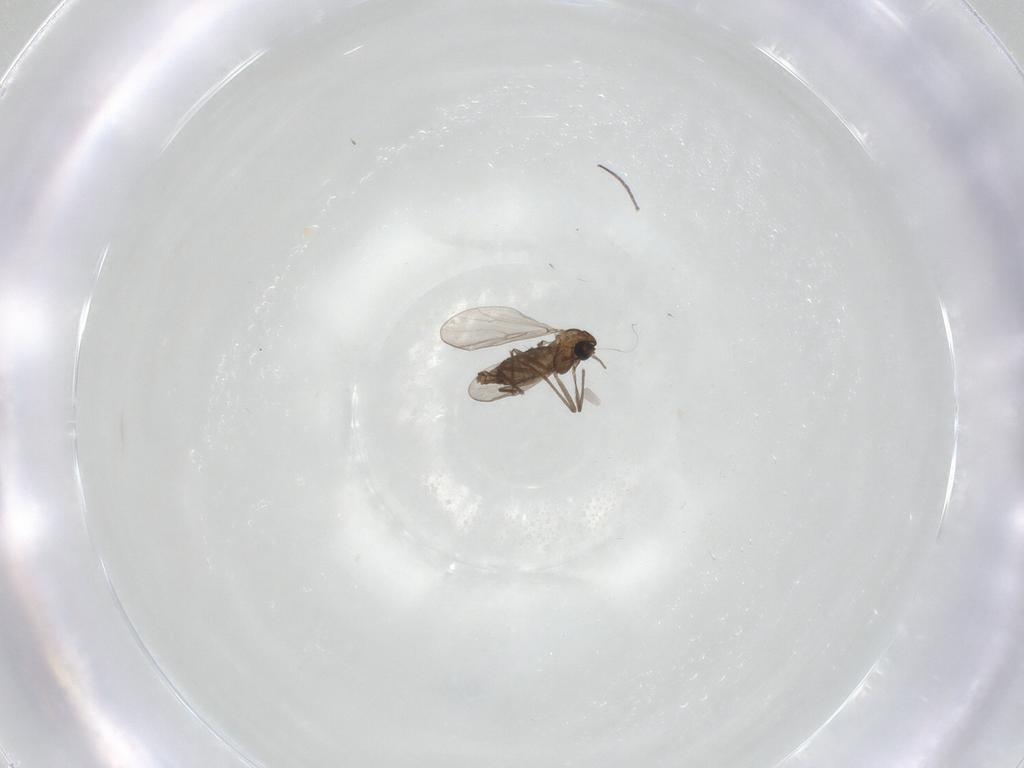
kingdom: Animalia
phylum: Arthropoda
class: Insecta
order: Diptera
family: Chironomidae
